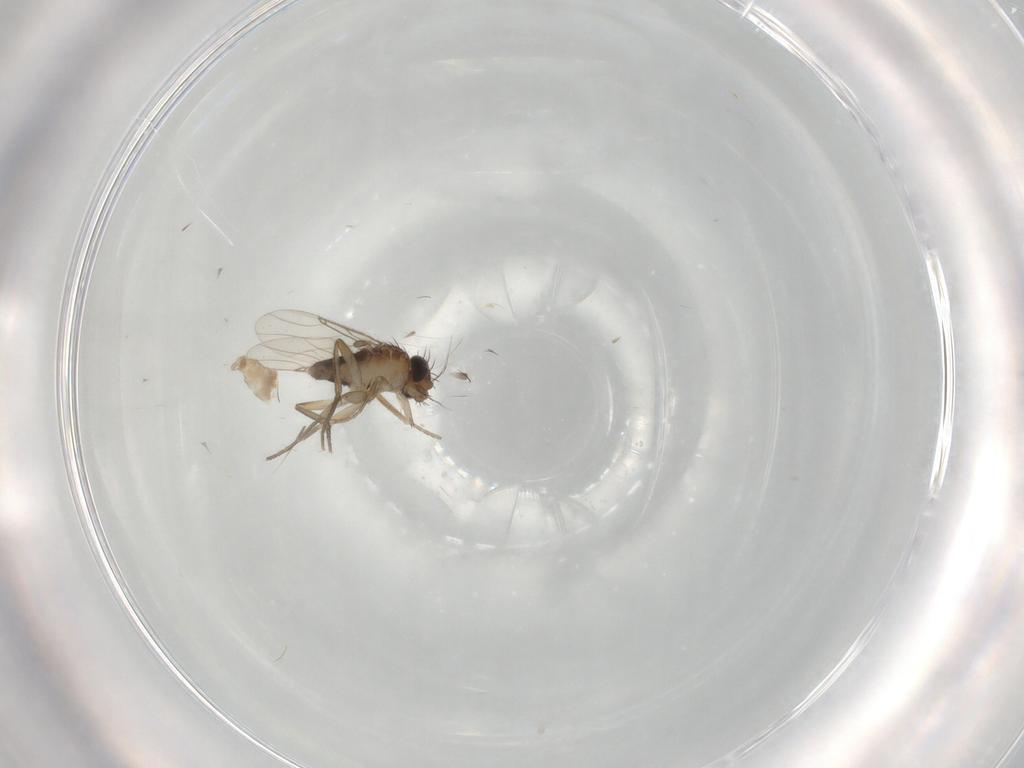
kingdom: Animalia
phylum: Arthropoda
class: Insecta
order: Diptera
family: Cecidomyiidae
